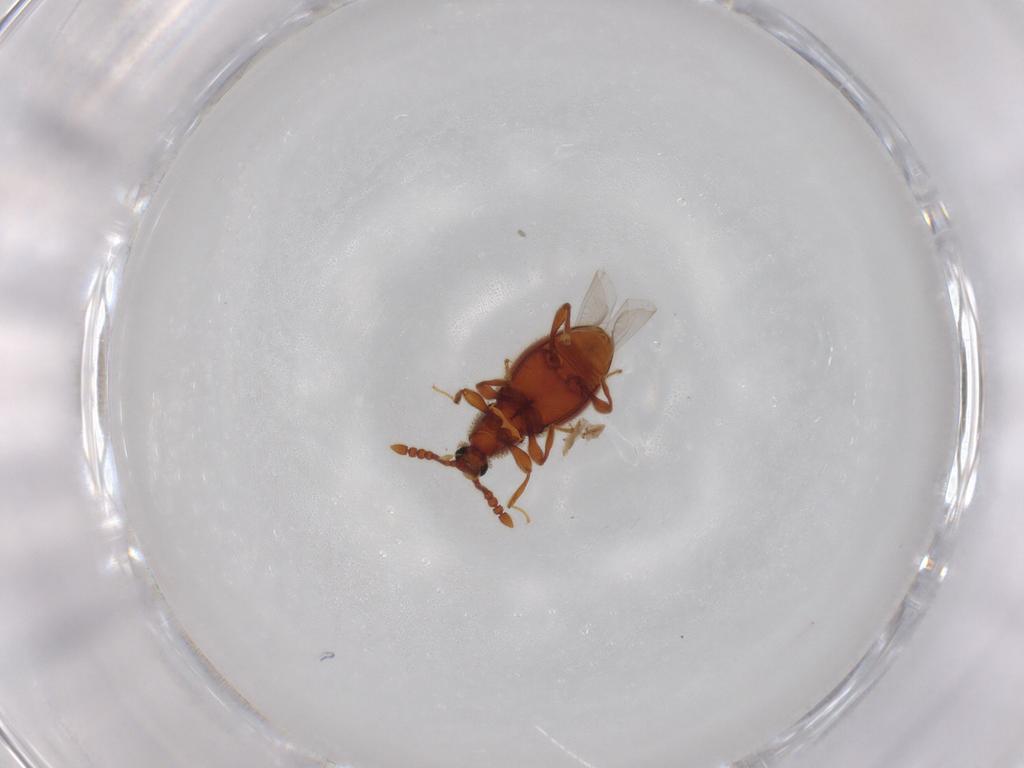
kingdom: Animalia
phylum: Arthropoda
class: Insecta
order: Coleoptera
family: Staphylinidae
